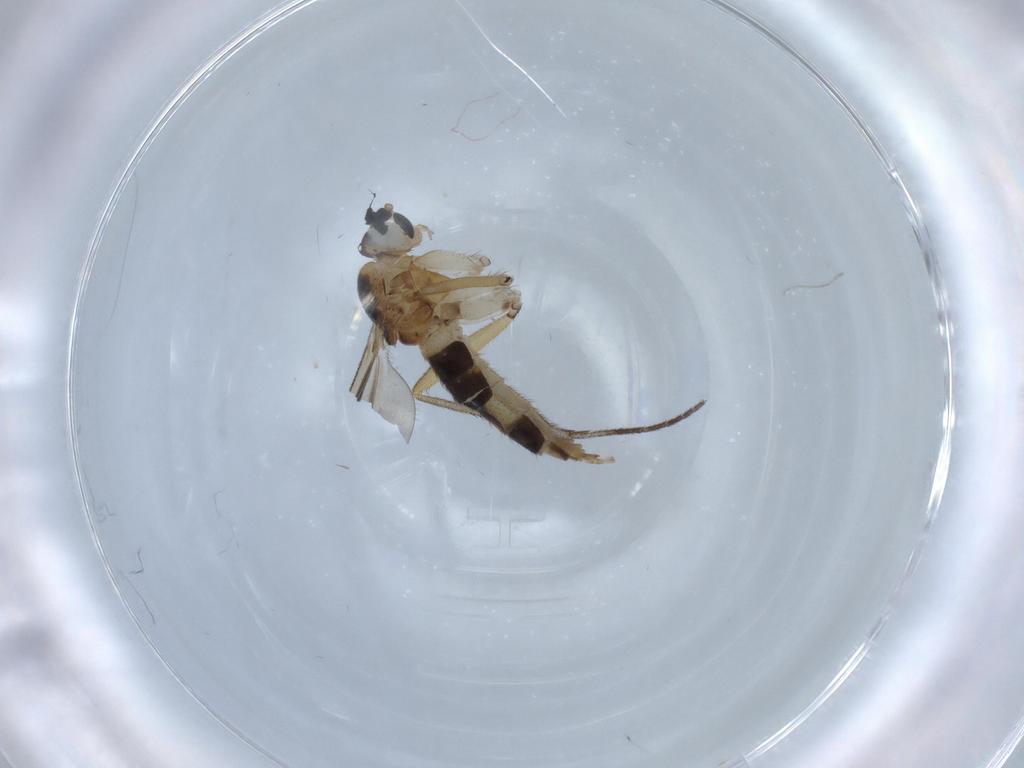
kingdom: Animalia
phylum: Arthropoda
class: Insecta
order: Diptera
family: Sciaridae
